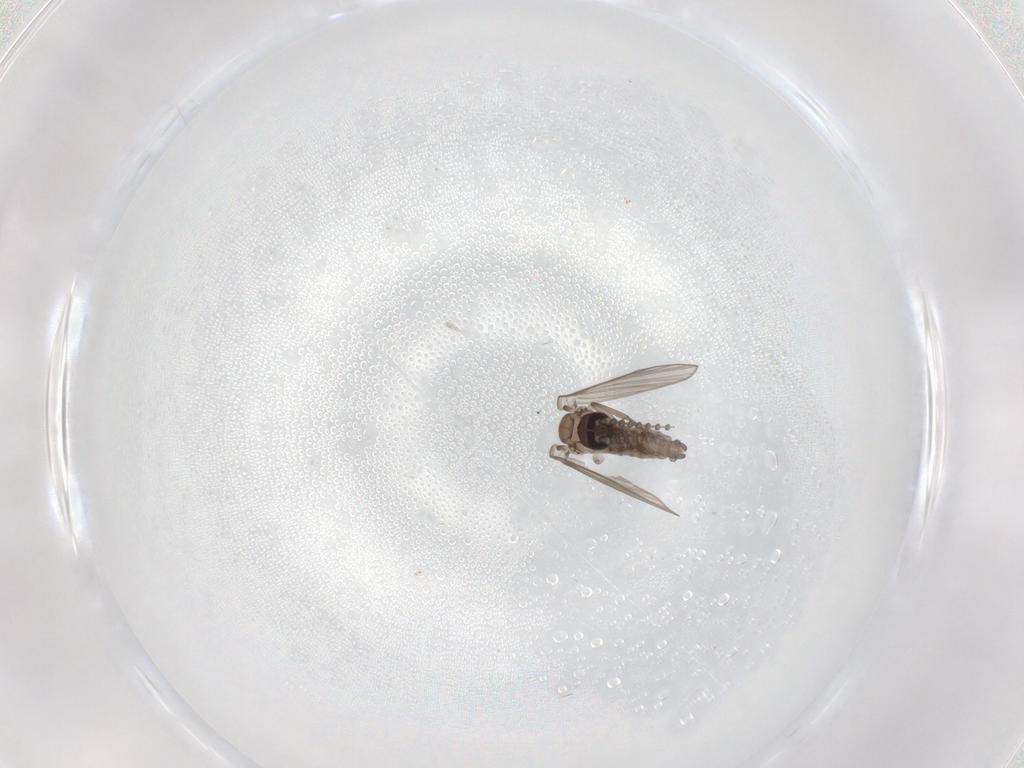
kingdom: Animalia
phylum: Arthropoda
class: Insecta
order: Diptera
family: Psychodidae
